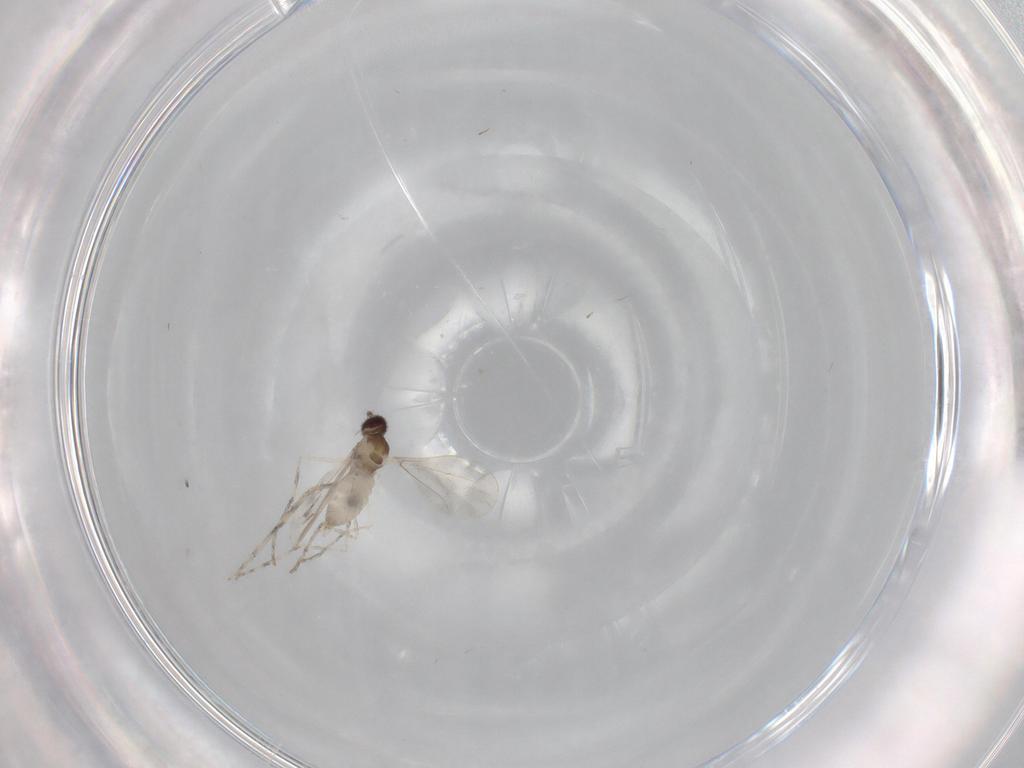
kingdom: Animalia
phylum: Arthropoda
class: Insecta
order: Diptera
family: Cecidomyiidae
